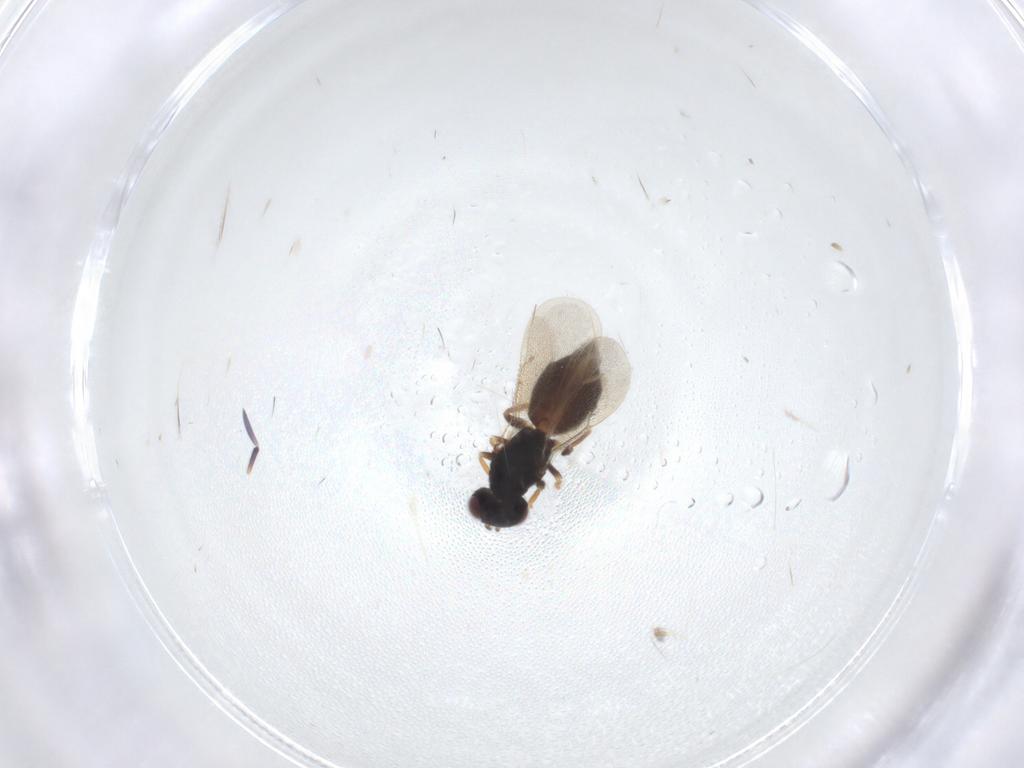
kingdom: Animalia
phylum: Arthropoda
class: Insecta
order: Hymenoptera
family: Eulophidae
